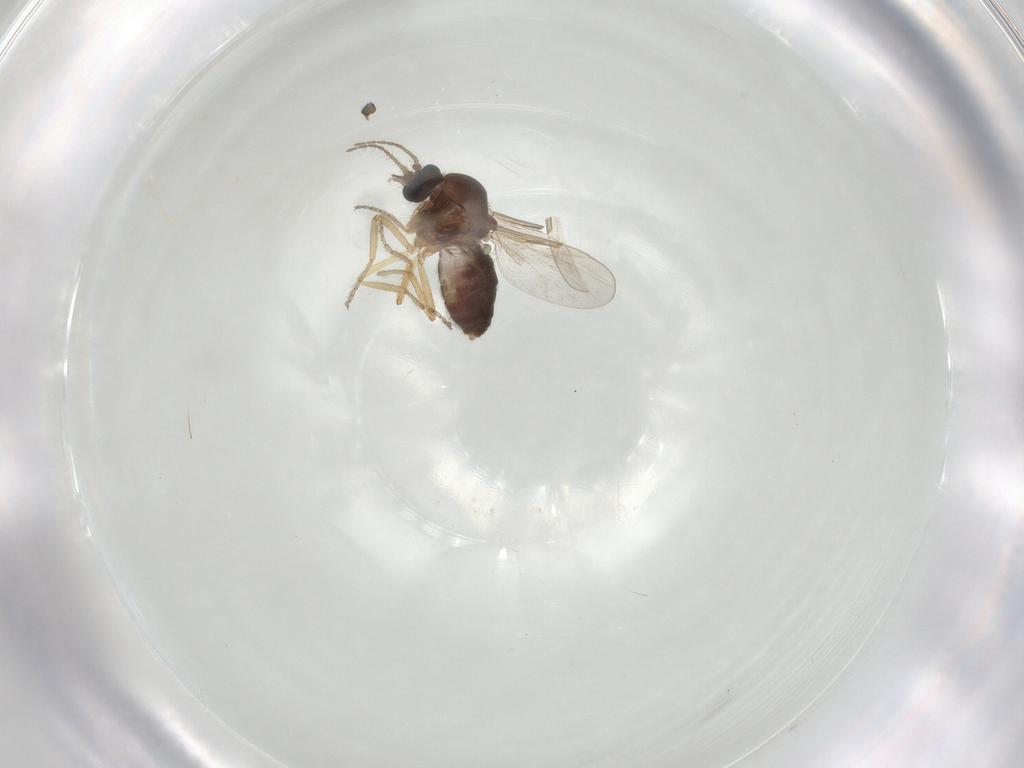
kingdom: Animalia
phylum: Arthropoda
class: Insecta
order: Diptera
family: Ceratopogonidae
